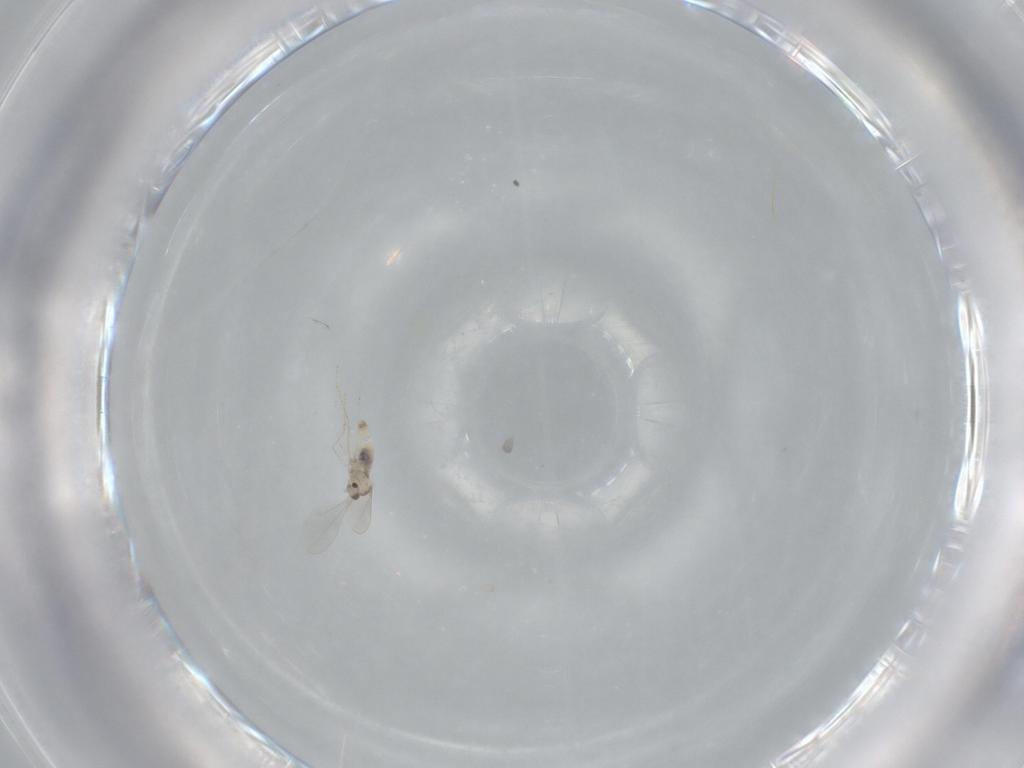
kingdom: Animalia
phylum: Arthropoda
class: Insecta
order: Diptera
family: Cecidomyiidae
